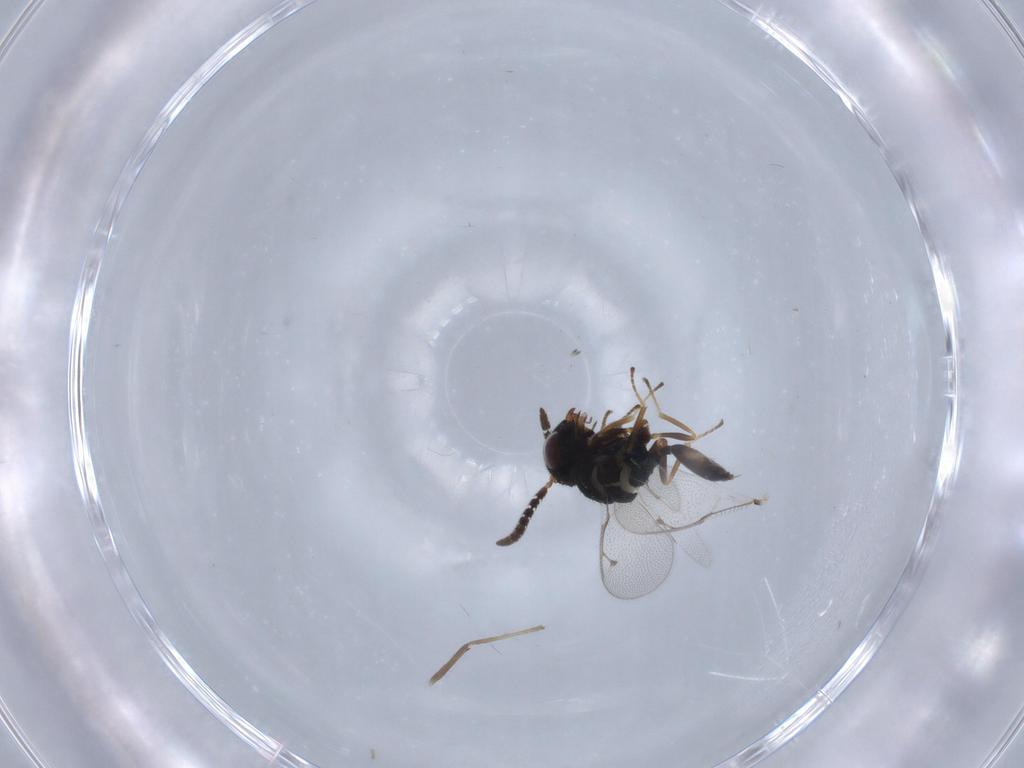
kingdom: Animalia
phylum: Arthropoda
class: Insecta
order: Hymenoptera
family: Agaonidae
